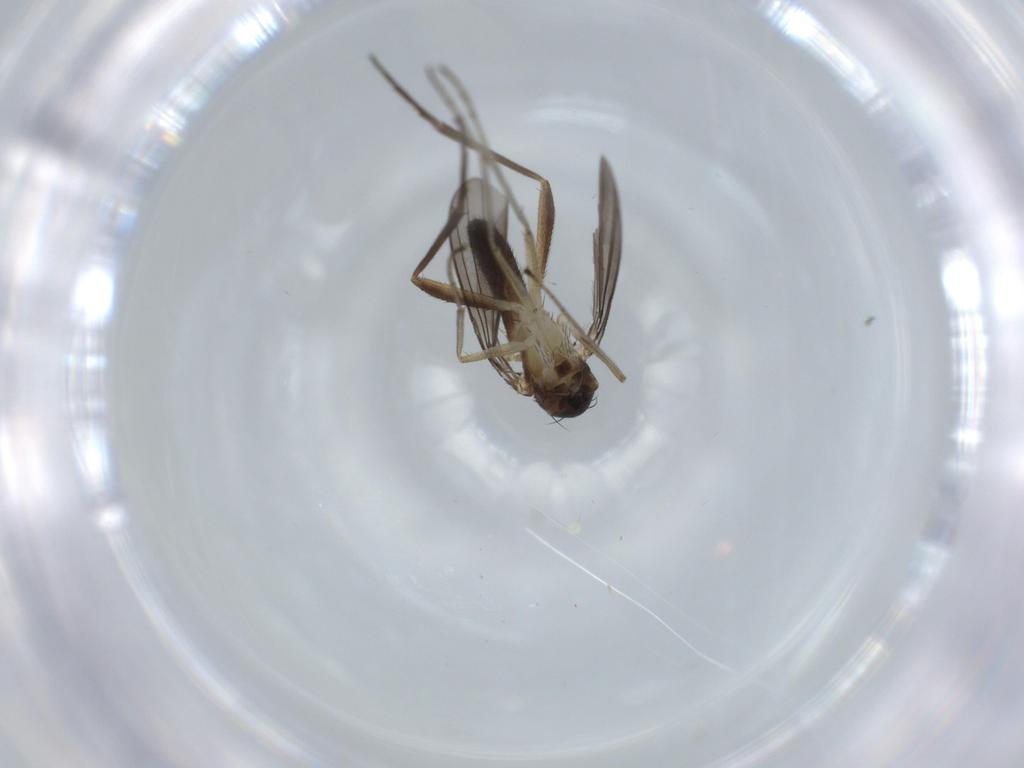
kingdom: Animalia
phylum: Arthropoda
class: Insecta
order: Diptera
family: Dolichopodidae
